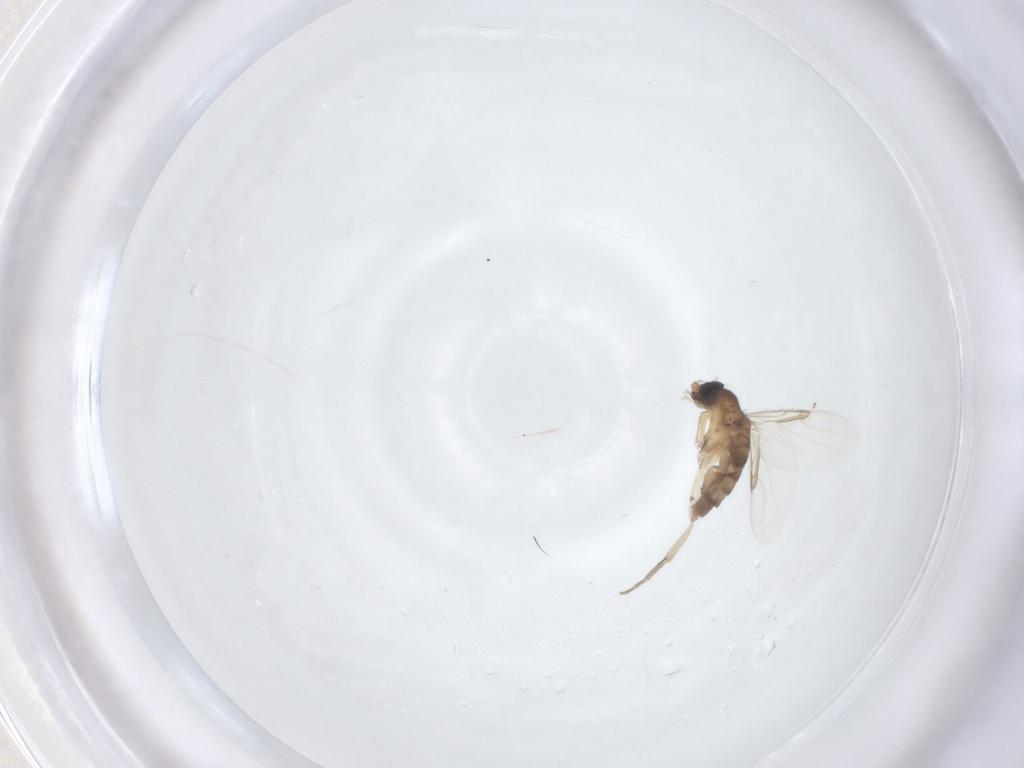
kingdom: Animalia
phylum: Arthropoda
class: Insecta
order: Diptera
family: Phoridae
